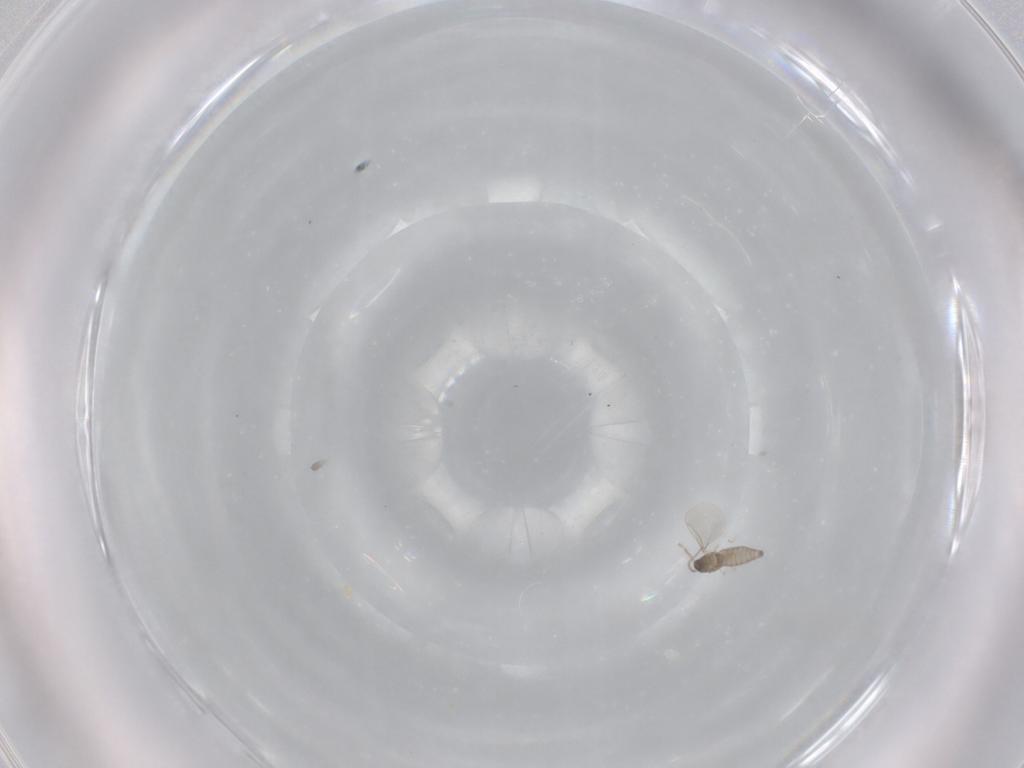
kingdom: Animalia
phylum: Arthropoda
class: Insecta
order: Diptera
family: Cecidomyiidae
